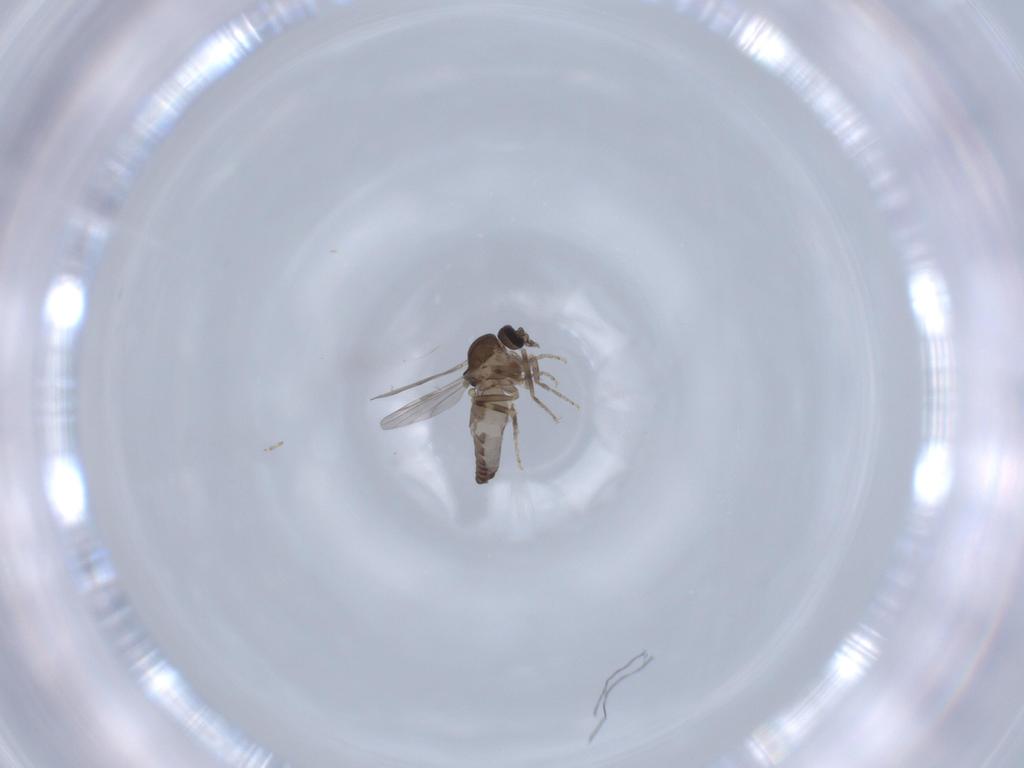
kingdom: Animalia
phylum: Arthropoda
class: Insecta
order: Diptera
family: Ceratopogonidae
